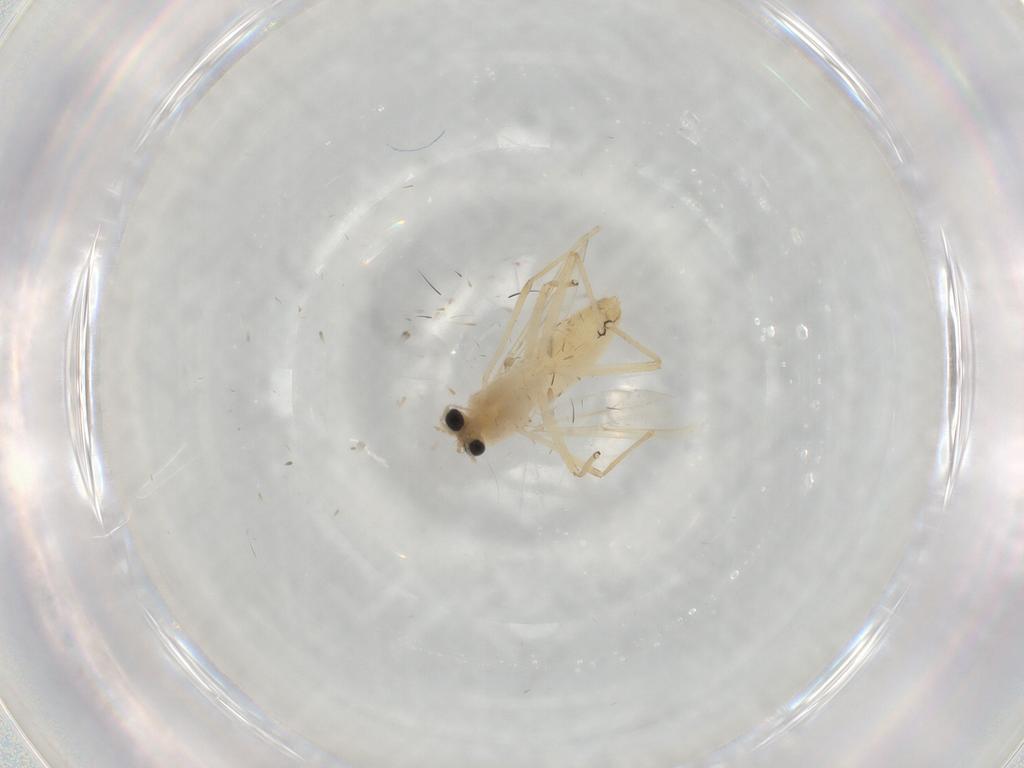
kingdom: Animalia
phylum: Arthropoda
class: Insecta
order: Diptera
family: Chironomidae
